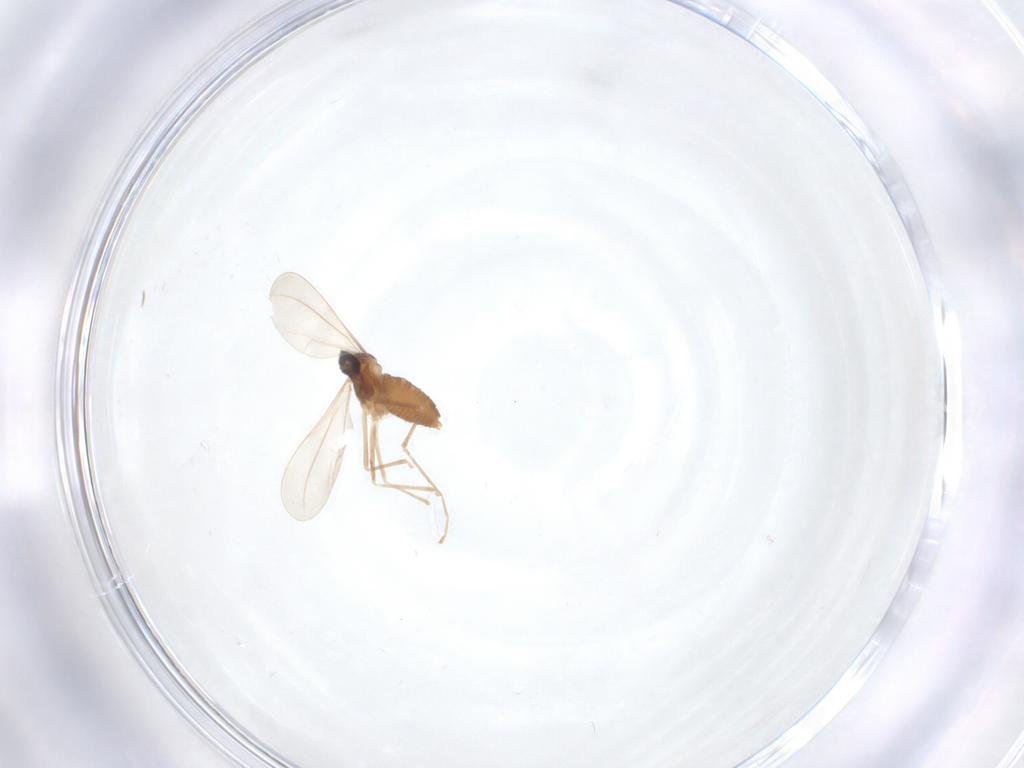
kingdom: Animalia
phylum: Arthropoda
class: Insecta
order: Diptera
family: Cecidomyiidae
